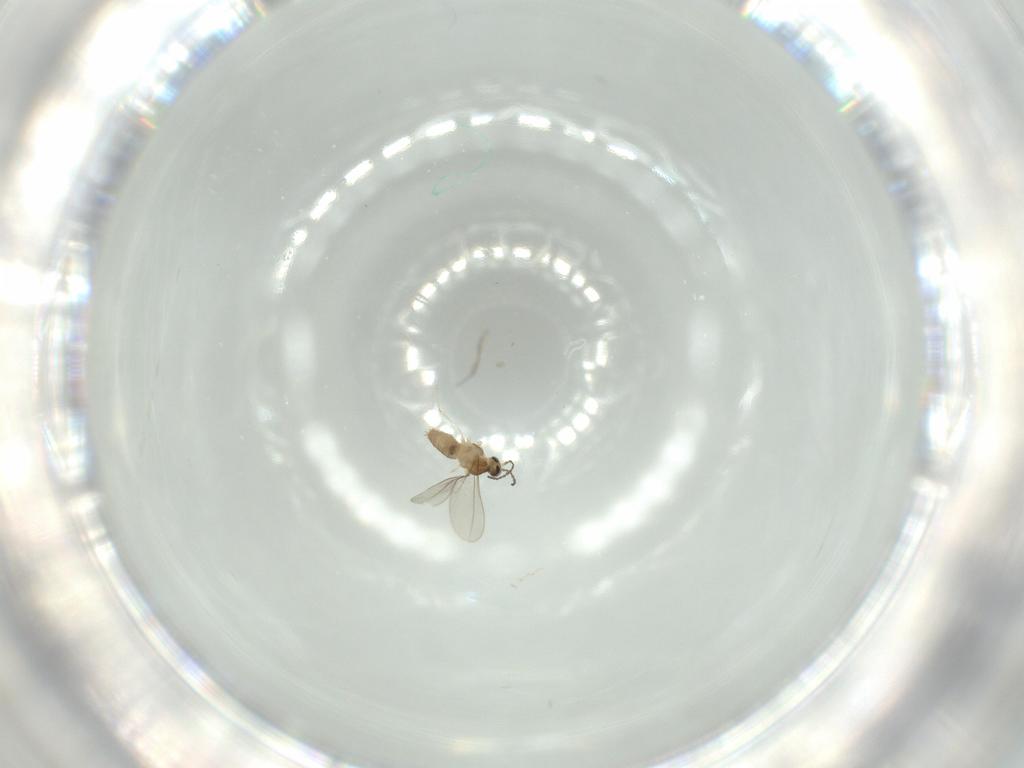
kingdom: Animalia
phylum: Arthropoda
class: Insecta
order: Diptera
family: Cecidomyiidae
